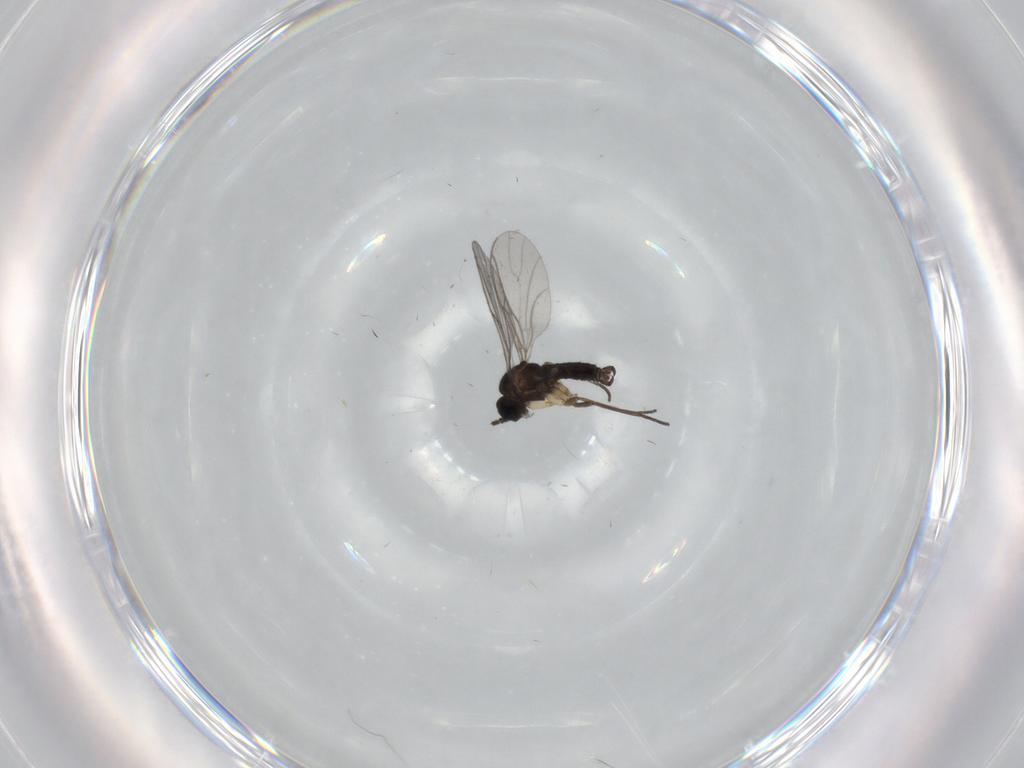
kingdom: Animalia
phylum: Arthropoda
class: Insecta
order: Diptera
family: Sciaridae
